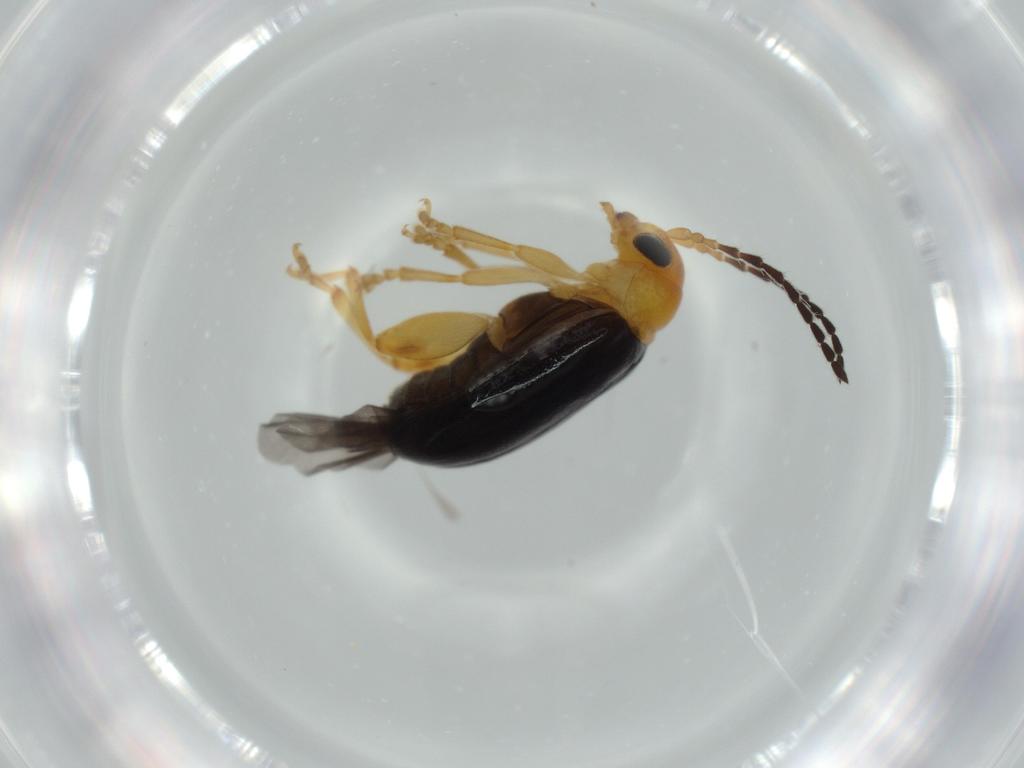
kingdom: Animalia
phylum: Arthropoda
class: Insecta
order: Coleoptera
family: Chrysomelidae
